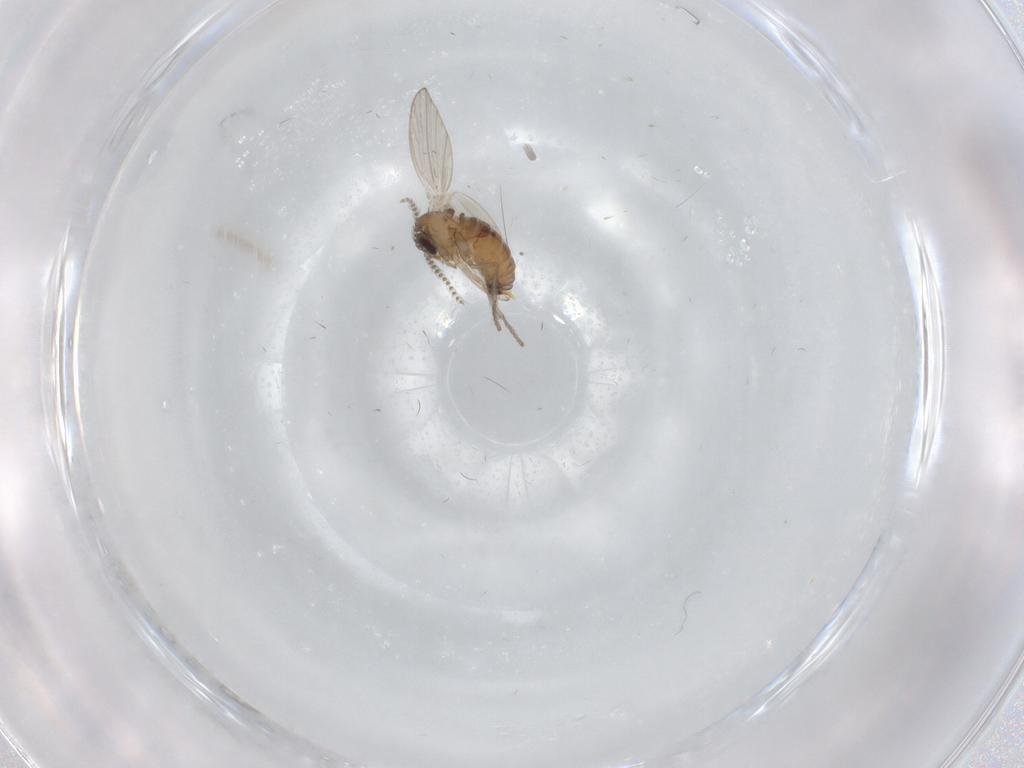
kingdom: Animalia
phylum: Arthropoda
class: Insecta
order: Diptera
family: Psychodidae
